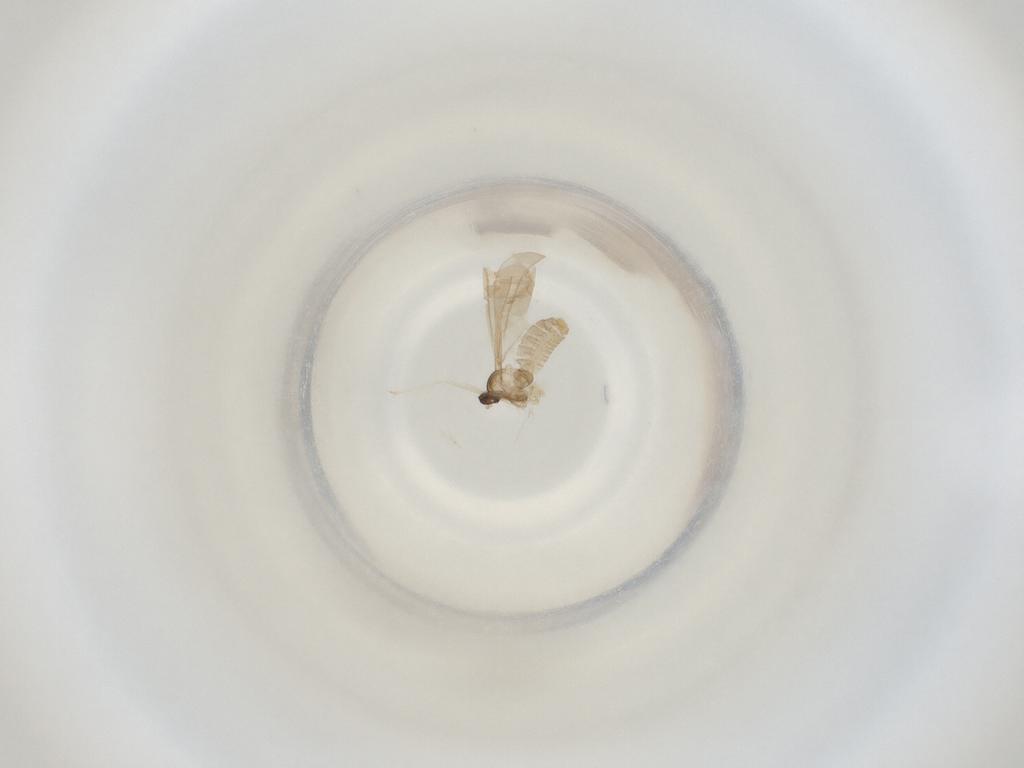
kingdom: Animalia
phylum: Arthropoda
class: Insecta
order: Diptera
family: Cecidomyiidae
